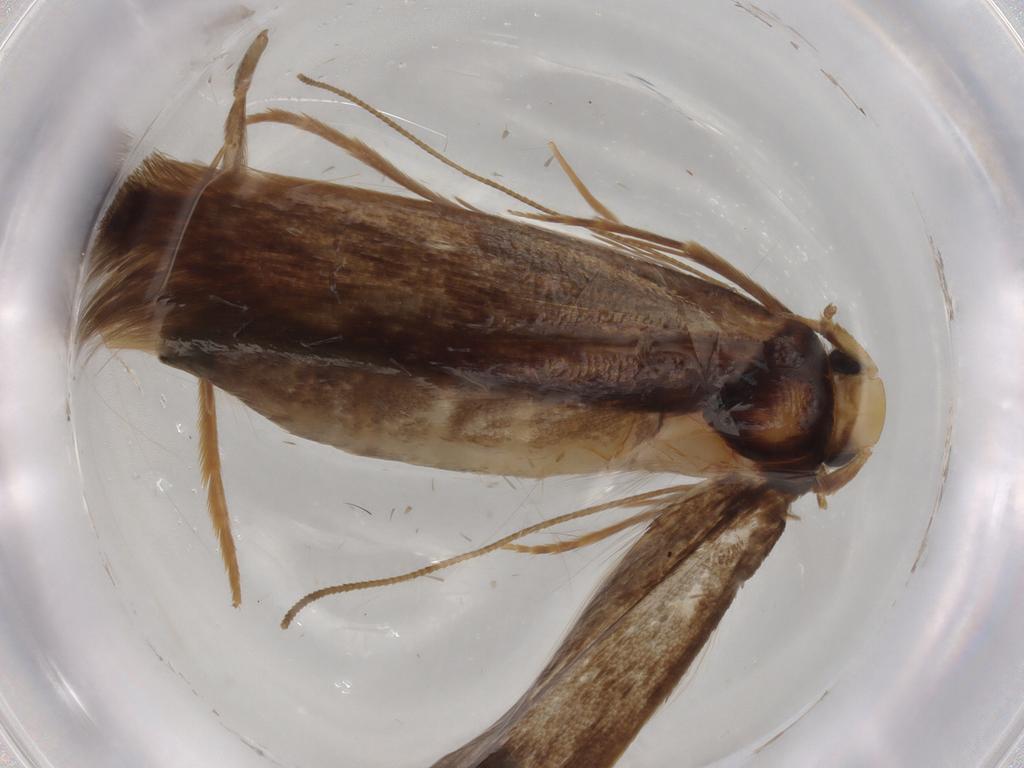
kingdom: Animalia
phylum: Arthropoda
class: Insecta
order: Lepidoptera
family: Tineidae
